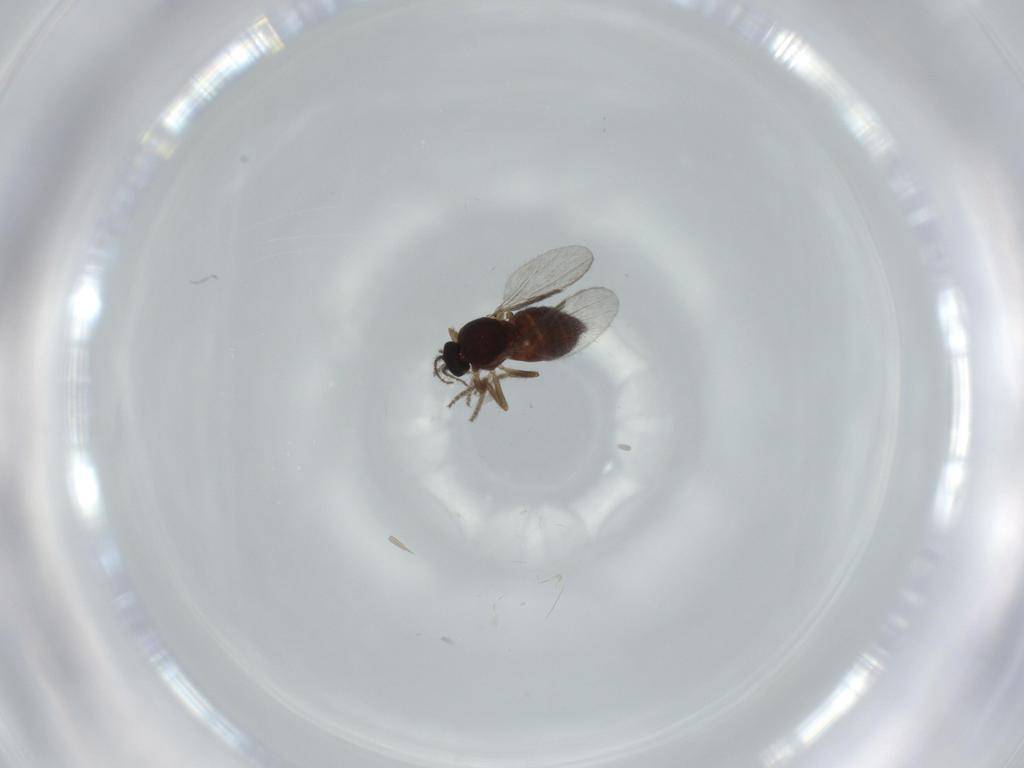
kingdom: Animalia
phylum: Arthropoda
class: Insecta
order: Diptera
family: Ceratopogonidae
